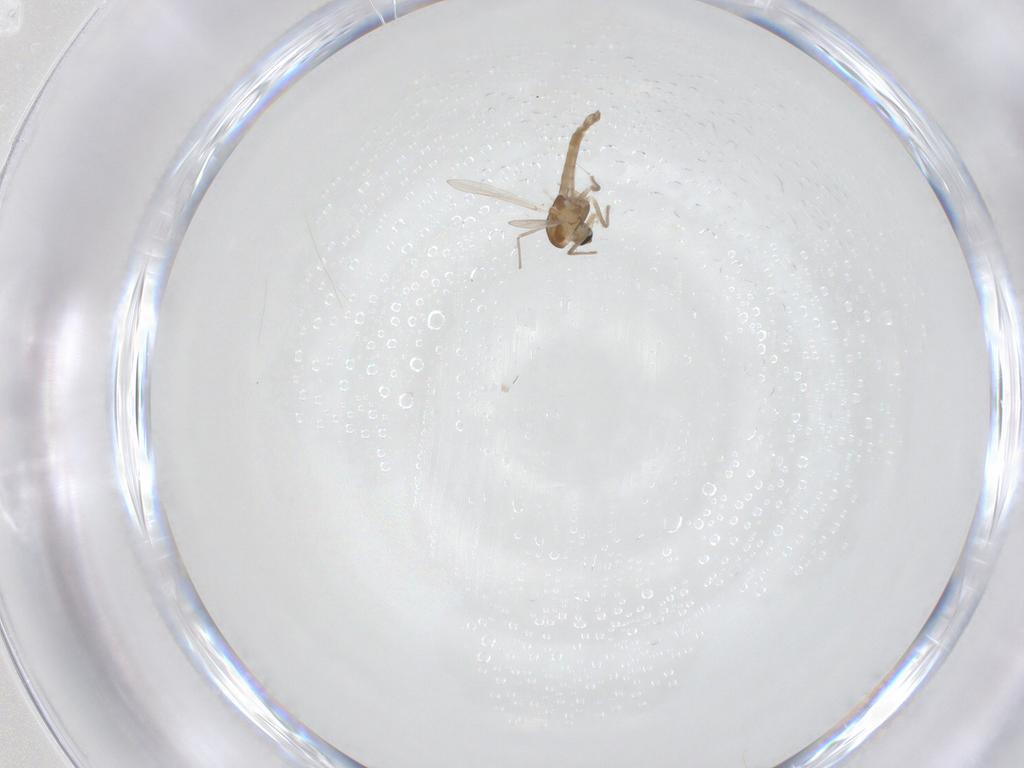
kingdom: Animalia
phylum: Arthropoda
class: Insecta
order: Diptera
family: Chironomidae
